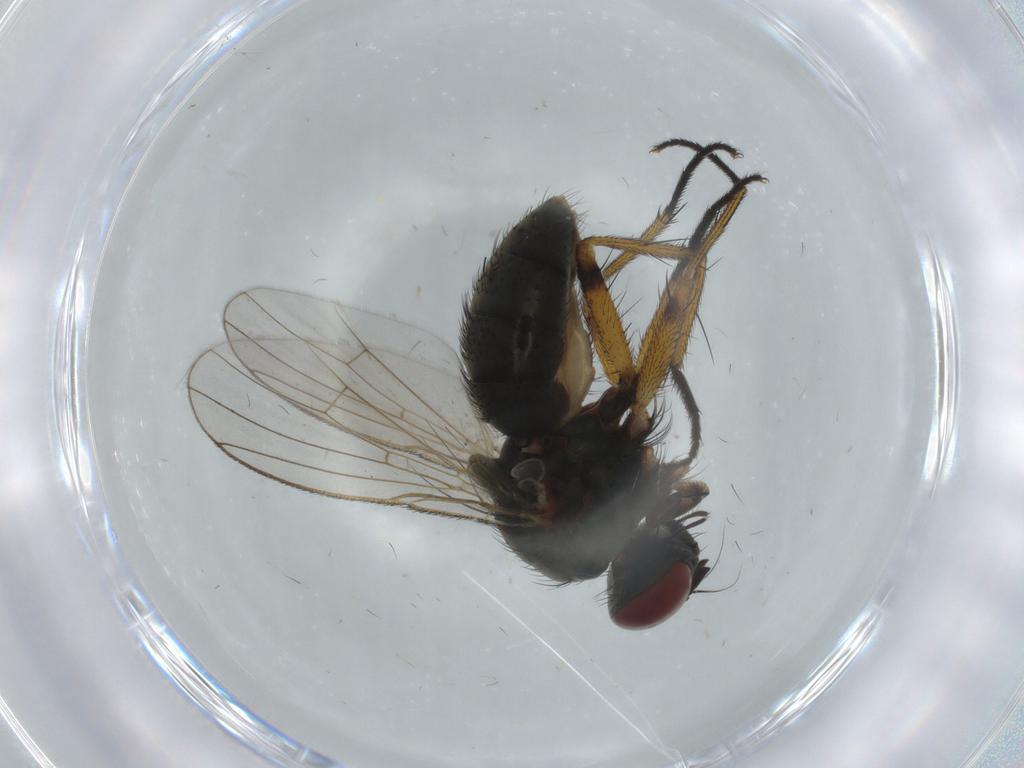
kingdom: Animalia
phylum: Arthropoda
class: Insecta
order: Diptera
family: Muscidae
